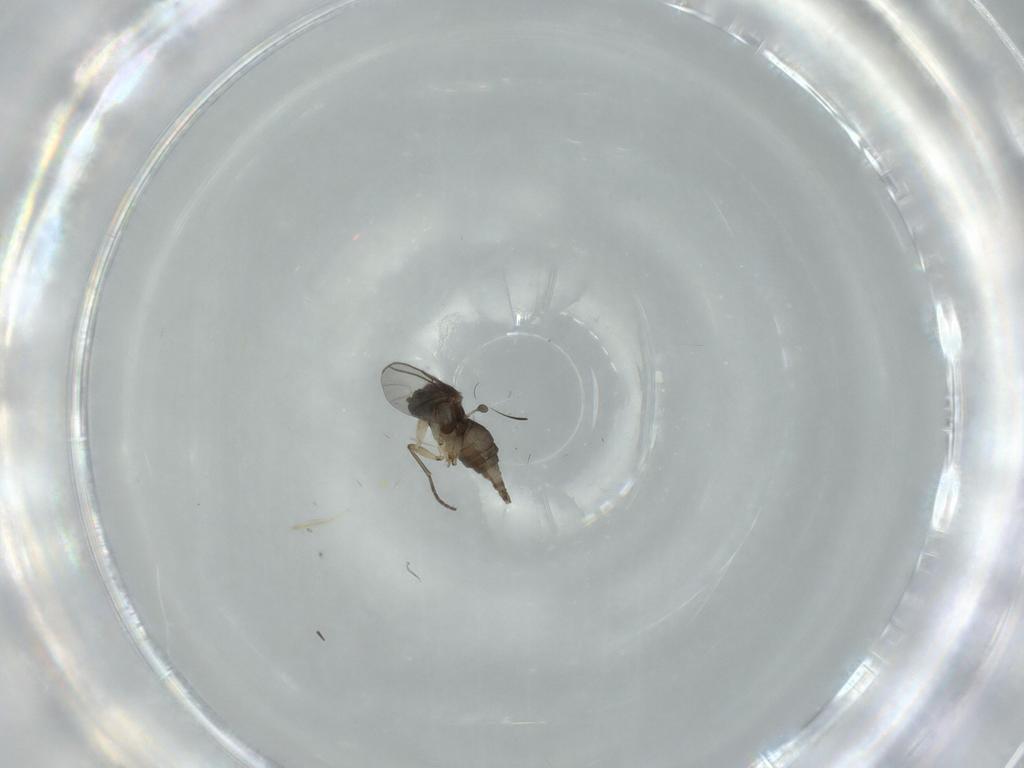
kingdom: Animalia
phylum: Arthropoda
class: Insecta
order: Diptera
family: Sciaridae
